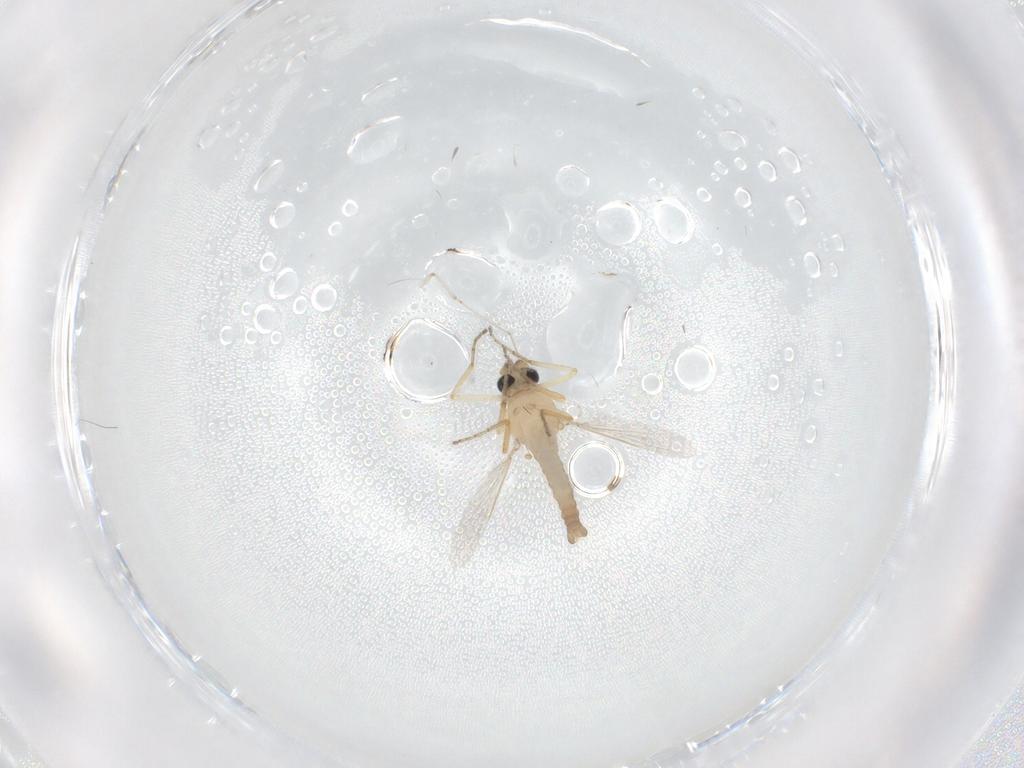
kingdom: Animalia
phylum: Arthropoda
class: Insecta
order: Diptera
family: Ceratopogonidae
